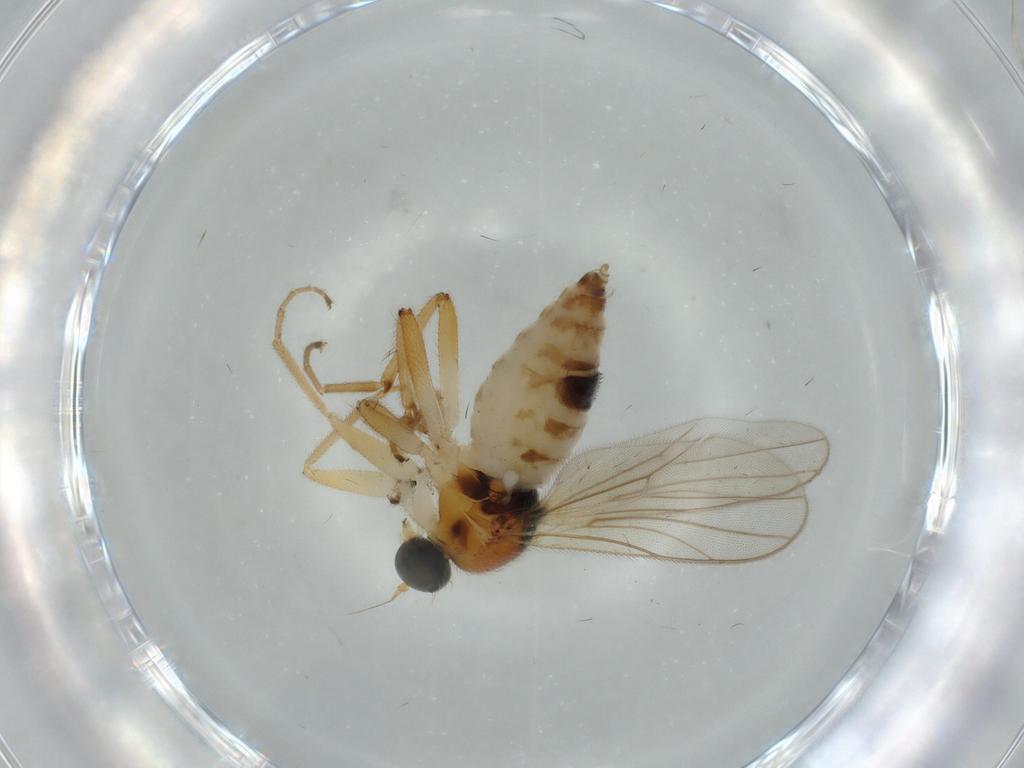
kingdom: Animalia
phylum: Arthropoda
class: Insecta
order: Diptera
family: Hybotidae
